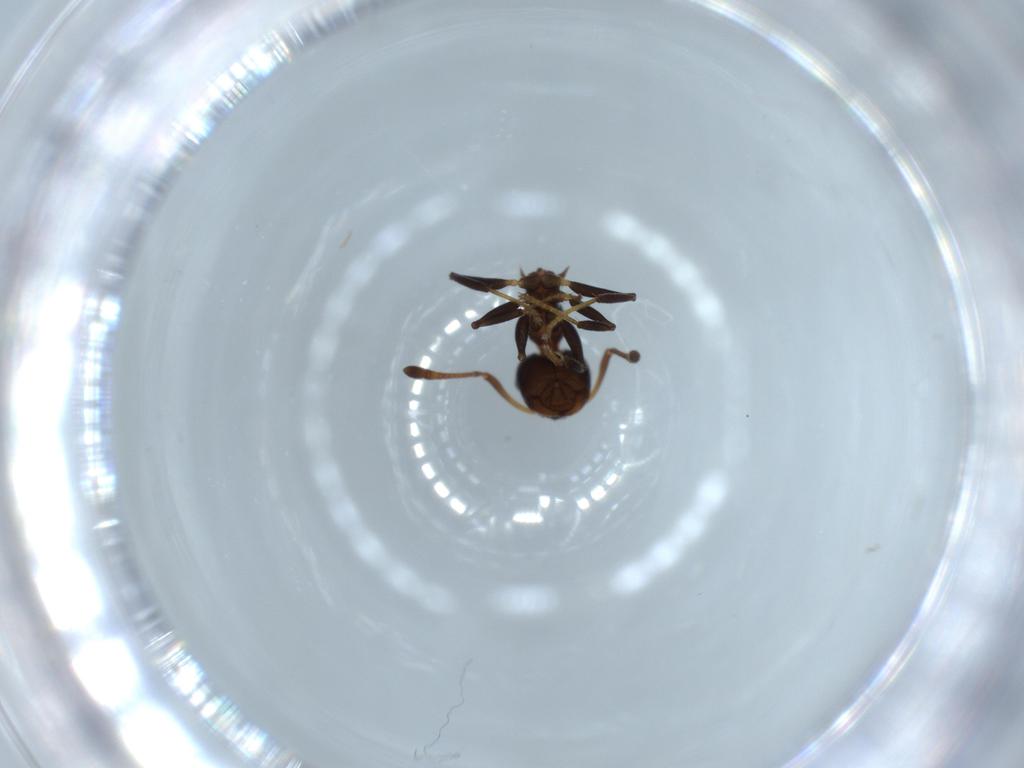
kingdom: Animalia
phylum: Arthropoda
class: Insecta
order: Hymenoptera
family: Formicidae
